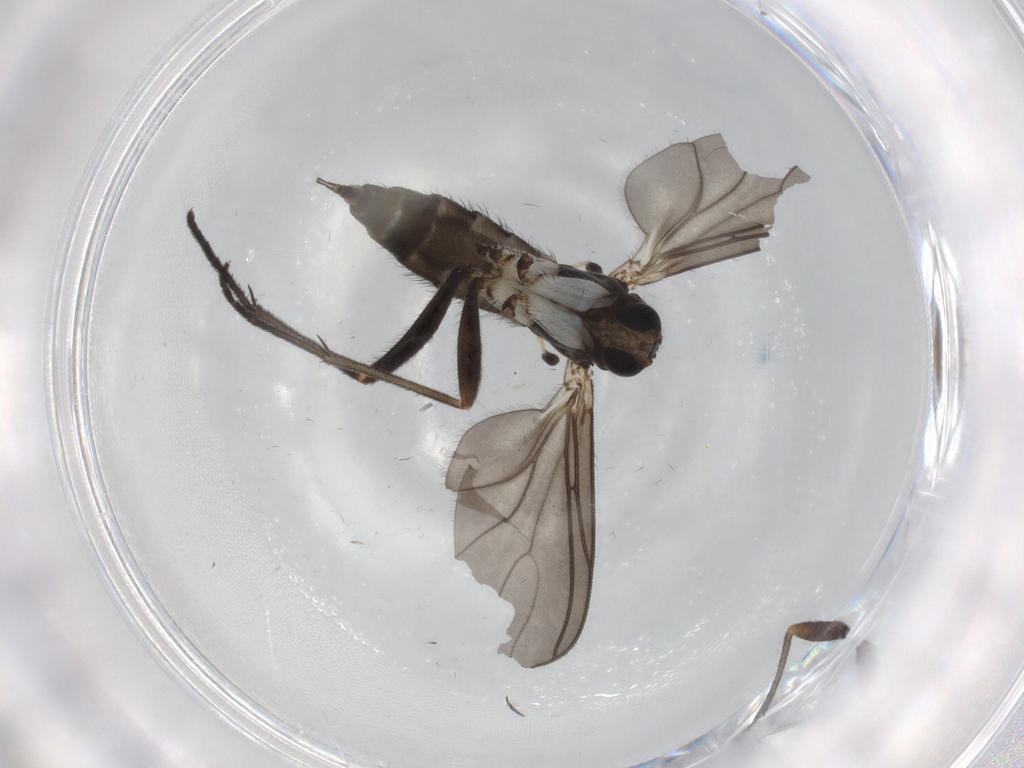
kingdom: Animalia
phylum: Arthropoda
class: Insecta
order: Diptera
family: Sciaridae
